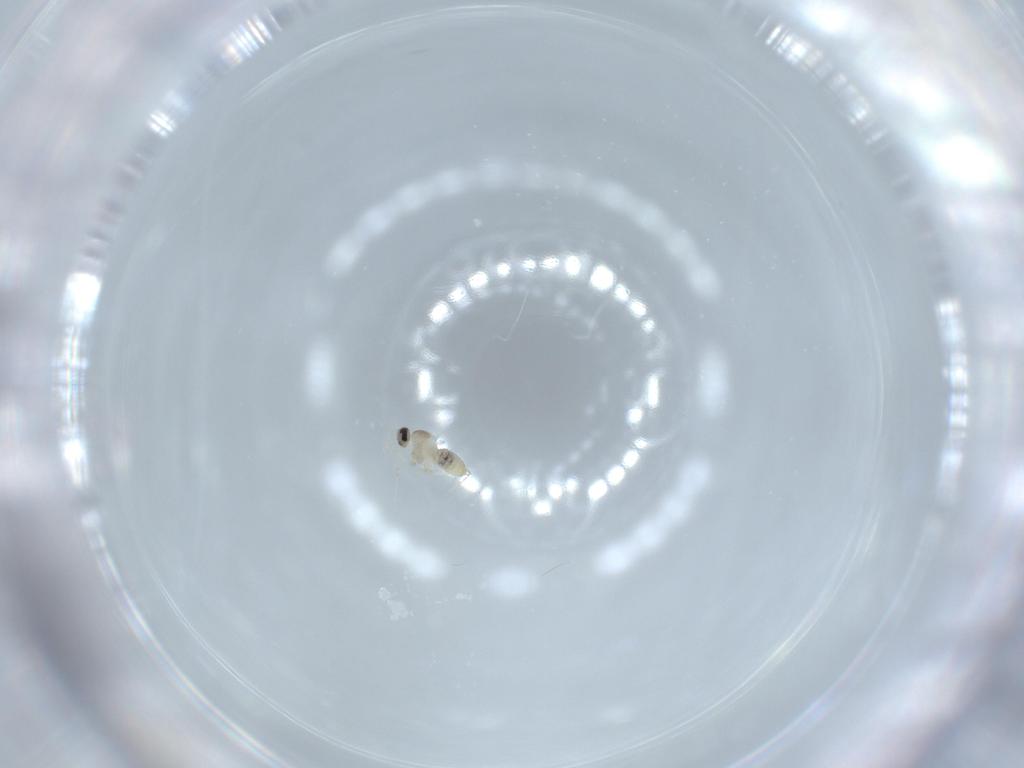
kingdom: Animalia
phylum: Arthropoda
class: Insecta
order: Diptera
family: Cecidomyiidae
